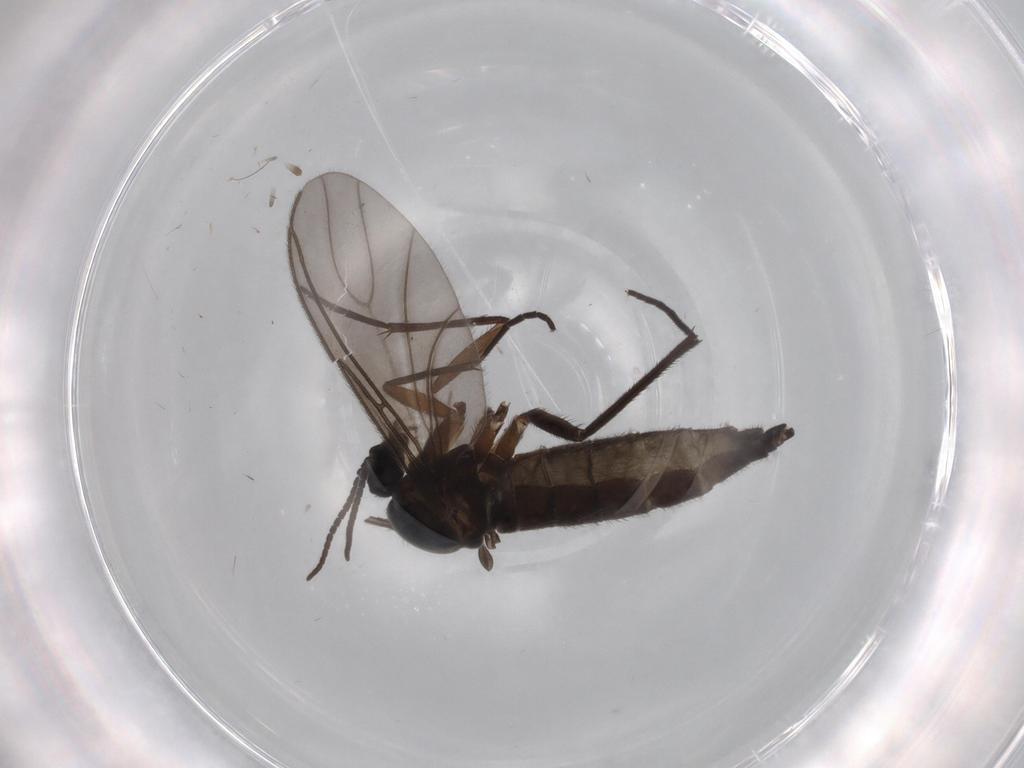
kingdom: Animalia
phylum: Arthropoda
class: Insecta
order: Diptera
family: Sciaridae
